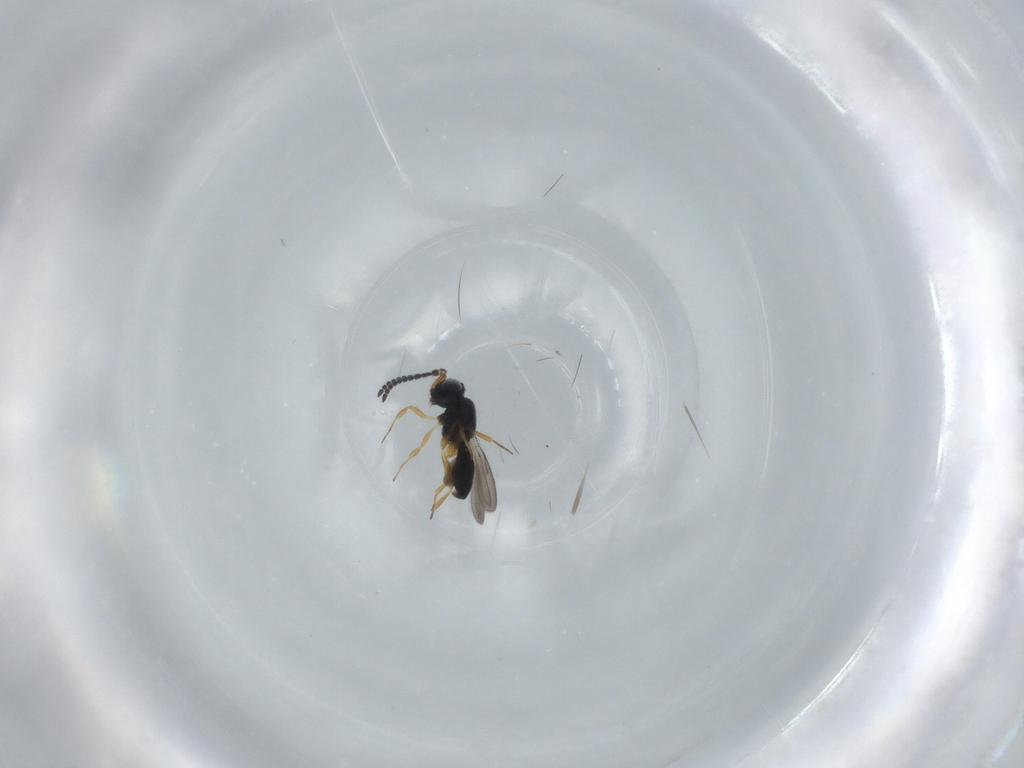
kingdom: Animalia
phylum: Arthropoda
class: Insecta
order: Hymenoptera
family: Scelionidae
